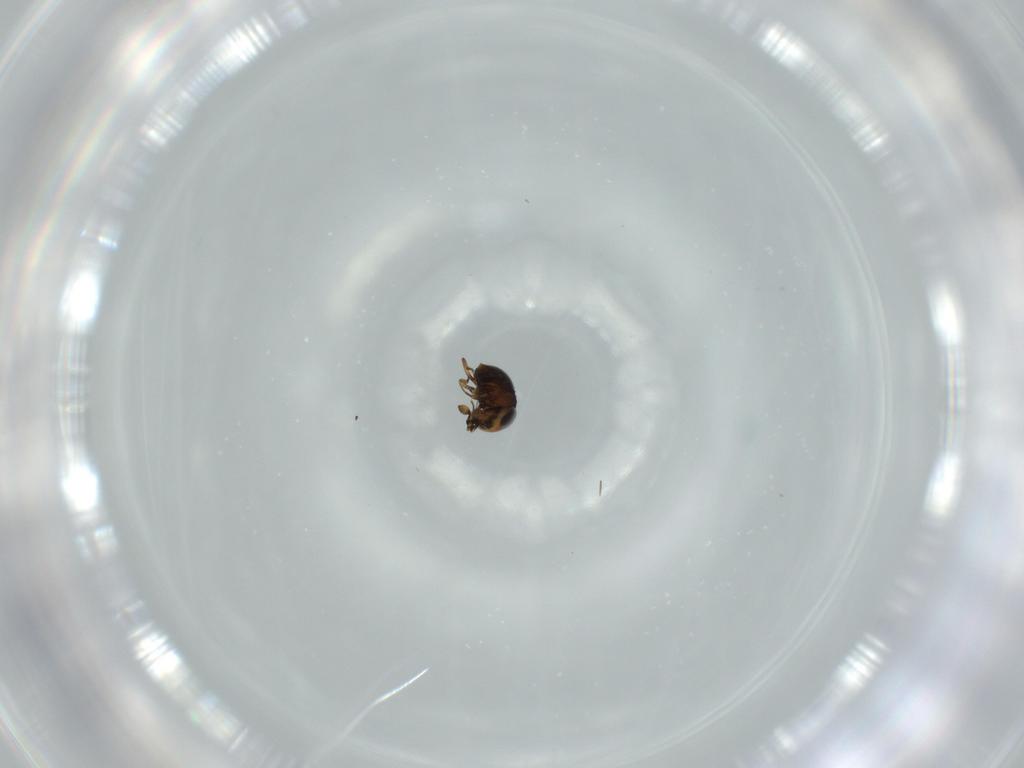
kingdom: Animalia
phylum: Arthropoda
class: Insecta
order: Hymenoptera
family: Scelionidae
